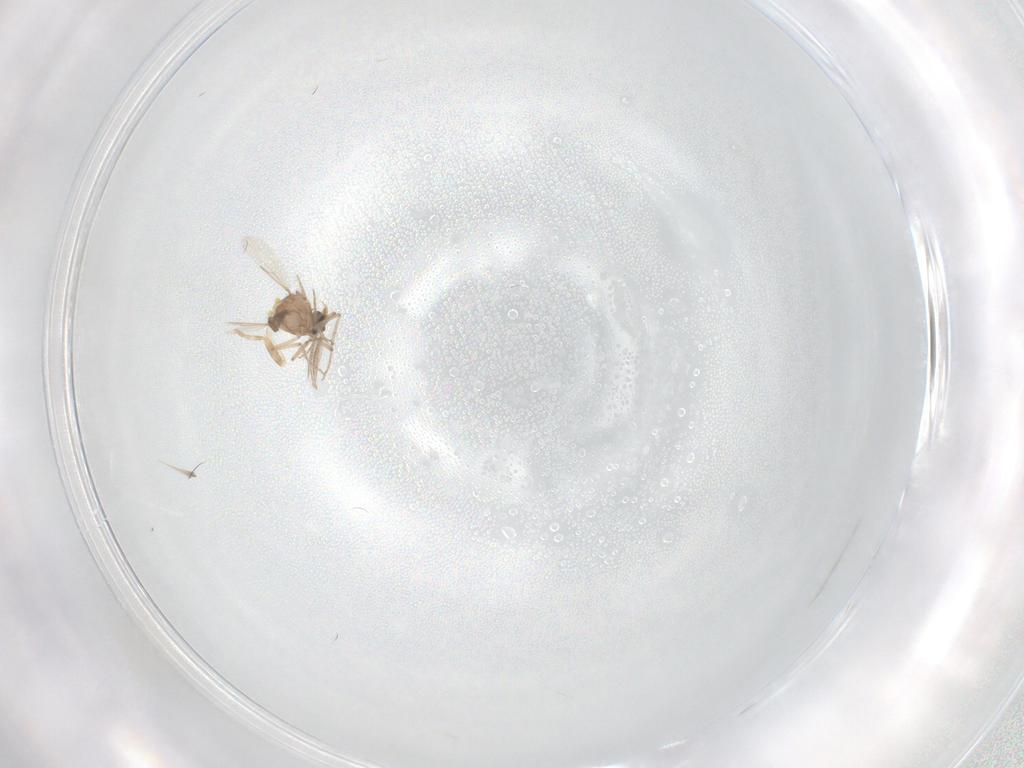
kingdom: Animalia
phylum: Arthropoda
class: Insecta
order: Diptera
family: Ceratopogonidae
